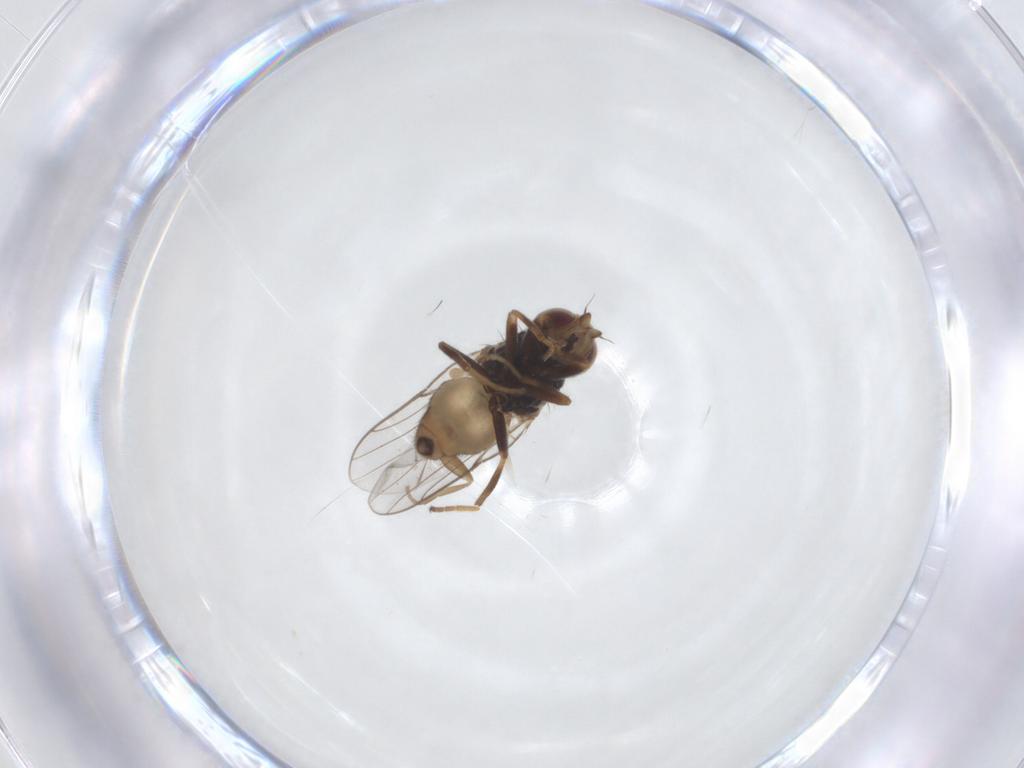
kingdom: Animalia
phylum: Arthropoda
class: Insecta
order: Diptera
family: Chloropidae
